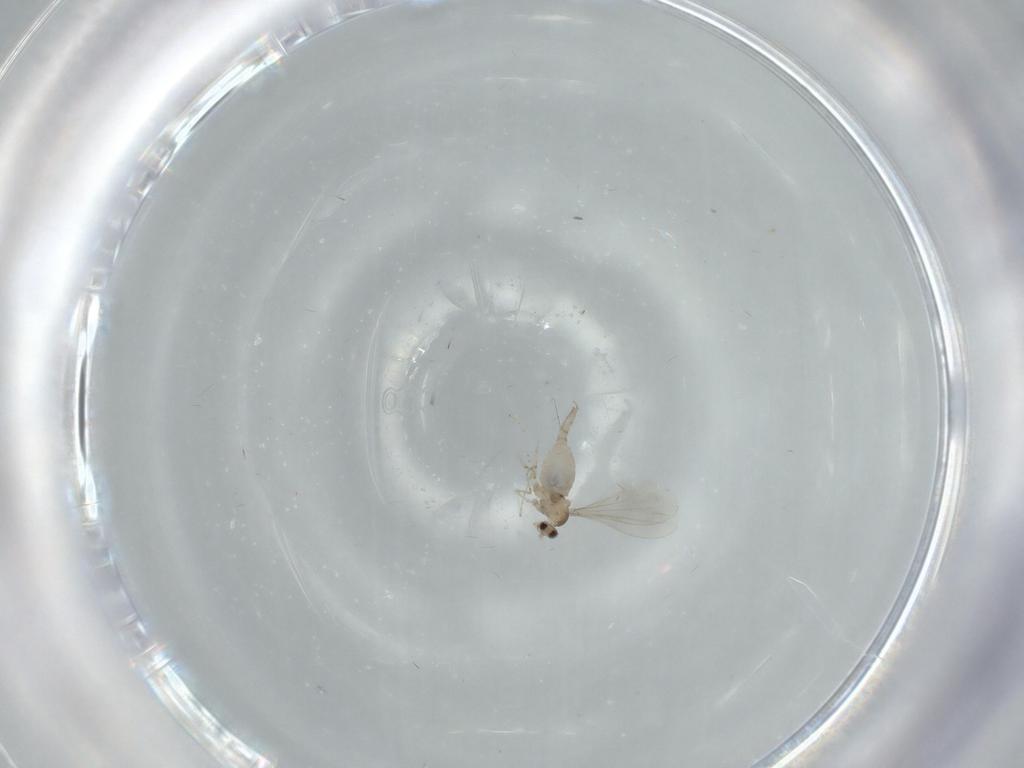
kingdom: Animalia
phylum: Arthropoda
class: Insecta
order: Diptera
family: Cecidomyiidae
